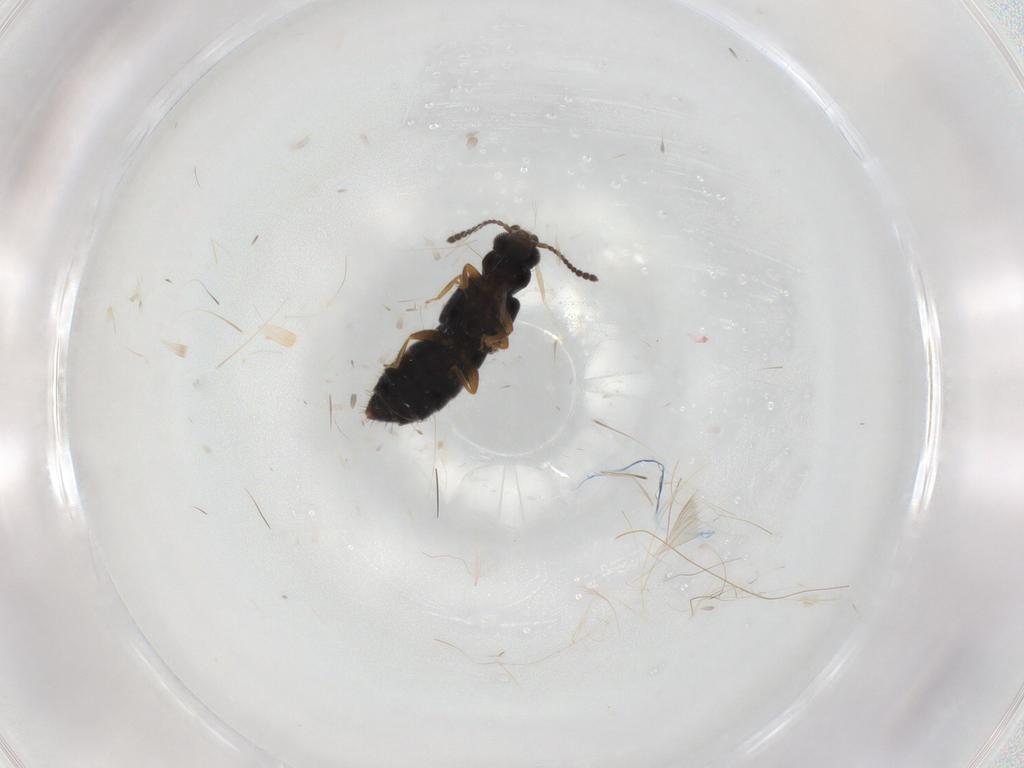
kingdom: Animalia
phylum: Arthropoda
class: Insecta
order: Coleoptera
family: Staphylinidae
